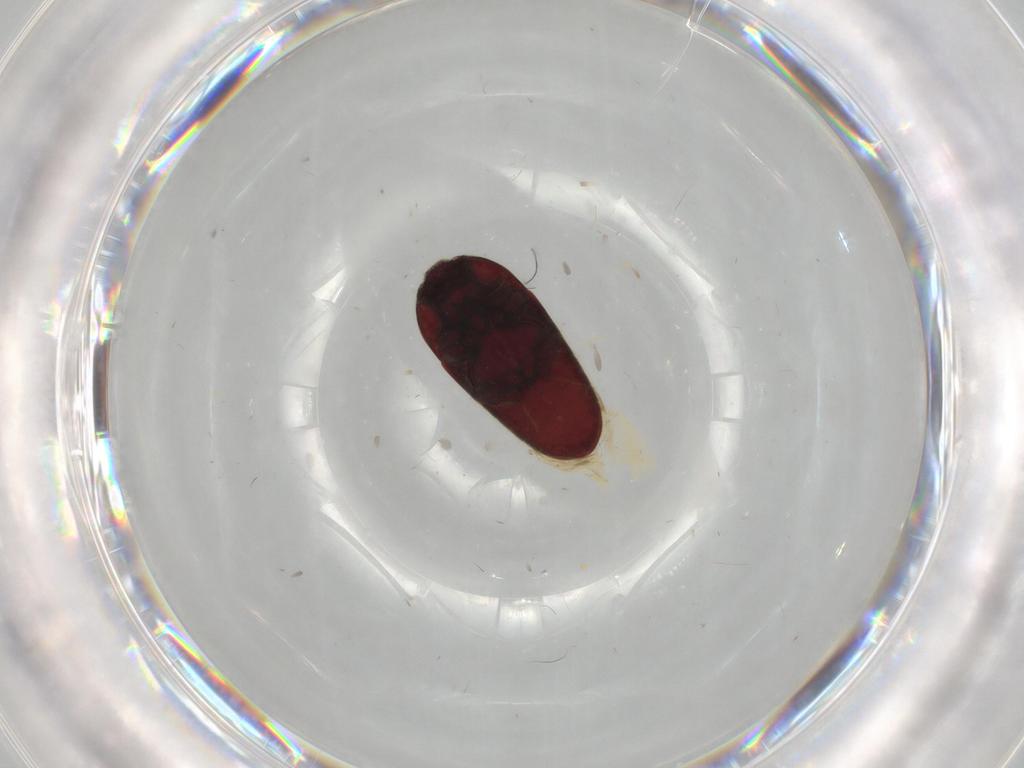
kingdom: Animalia
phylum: Arthropoda
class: Insecta
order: Coleoptera
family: Throscidae
